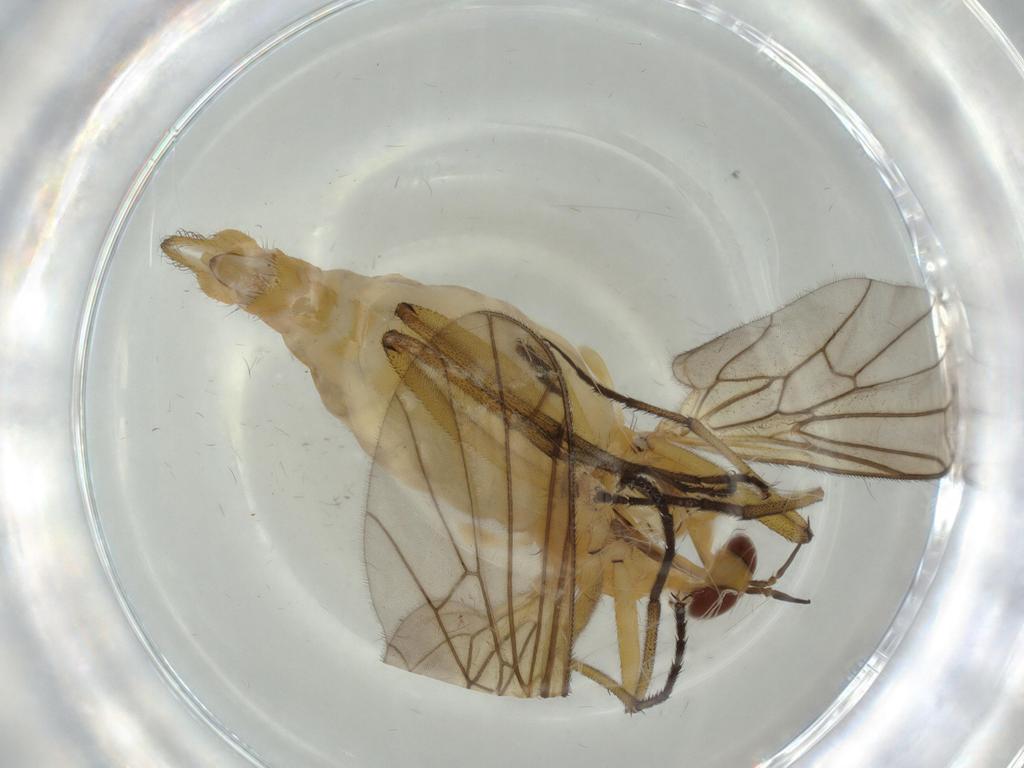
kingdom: Animalia
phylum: Arthropoda
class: Insecta
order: Diptera
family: Empididae
